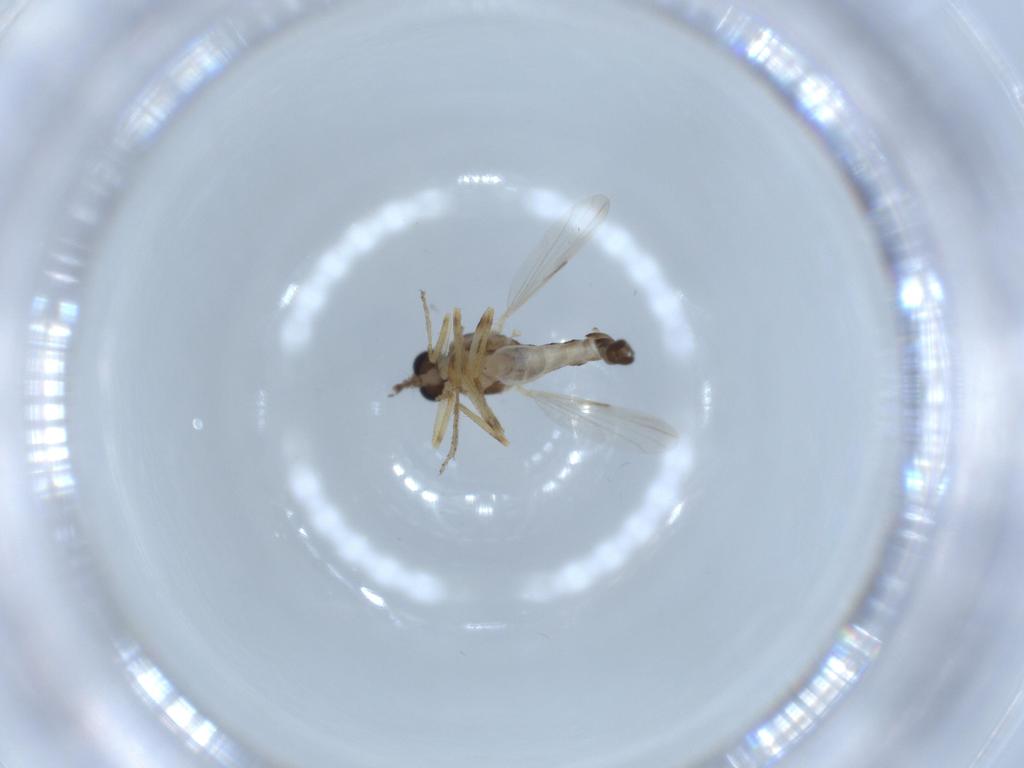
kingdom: Animalia
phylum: Arthropoda
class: Insecta
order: Diptera
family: Ceratopogonidae
